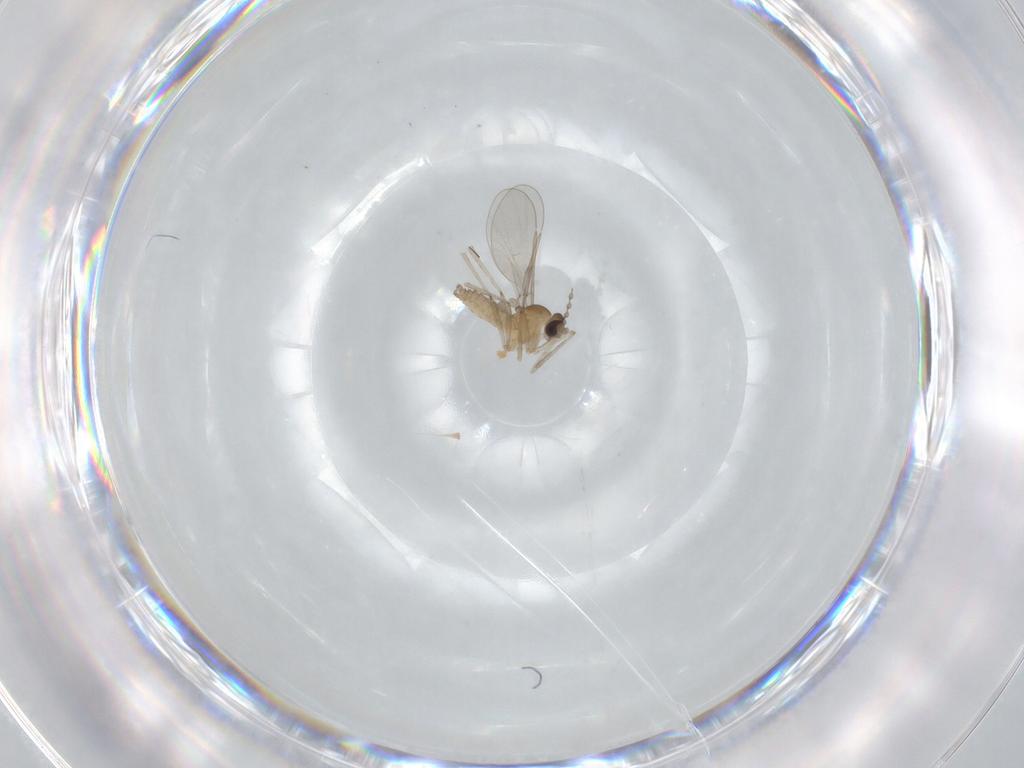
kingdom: Animalia
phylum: Arthropoda
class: Insecta
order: Diptera
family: Cecidomyiidae
